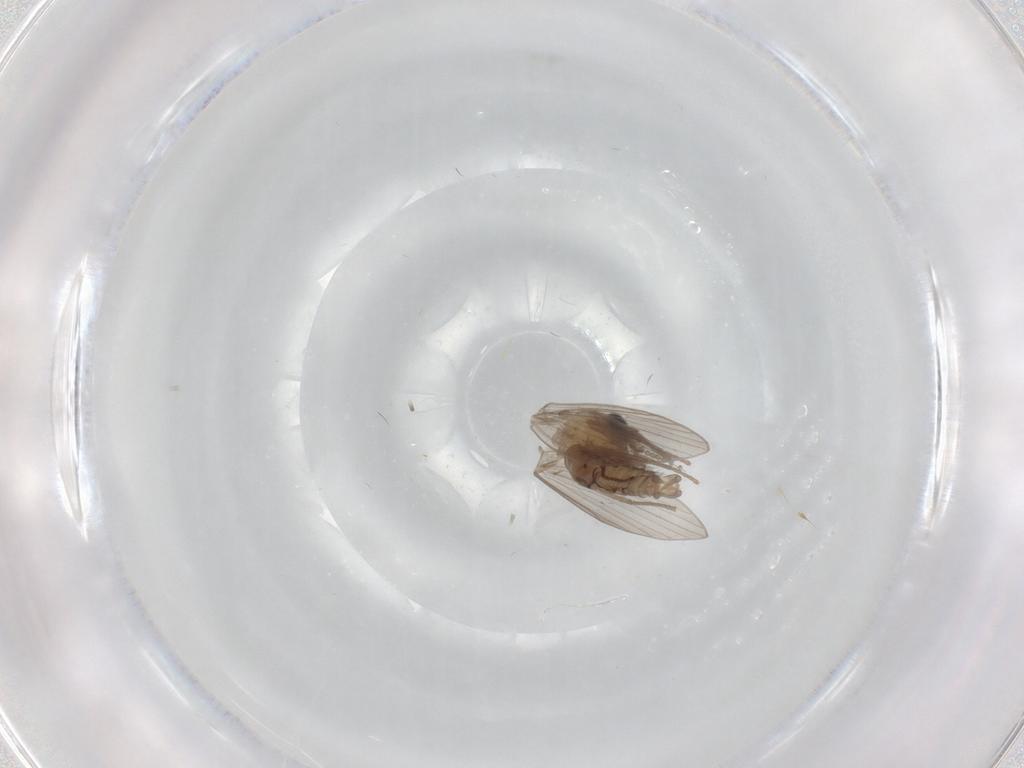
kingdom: Animalia
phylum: Arthropoda
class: Insecta
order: Diptera
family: Psychodidae
